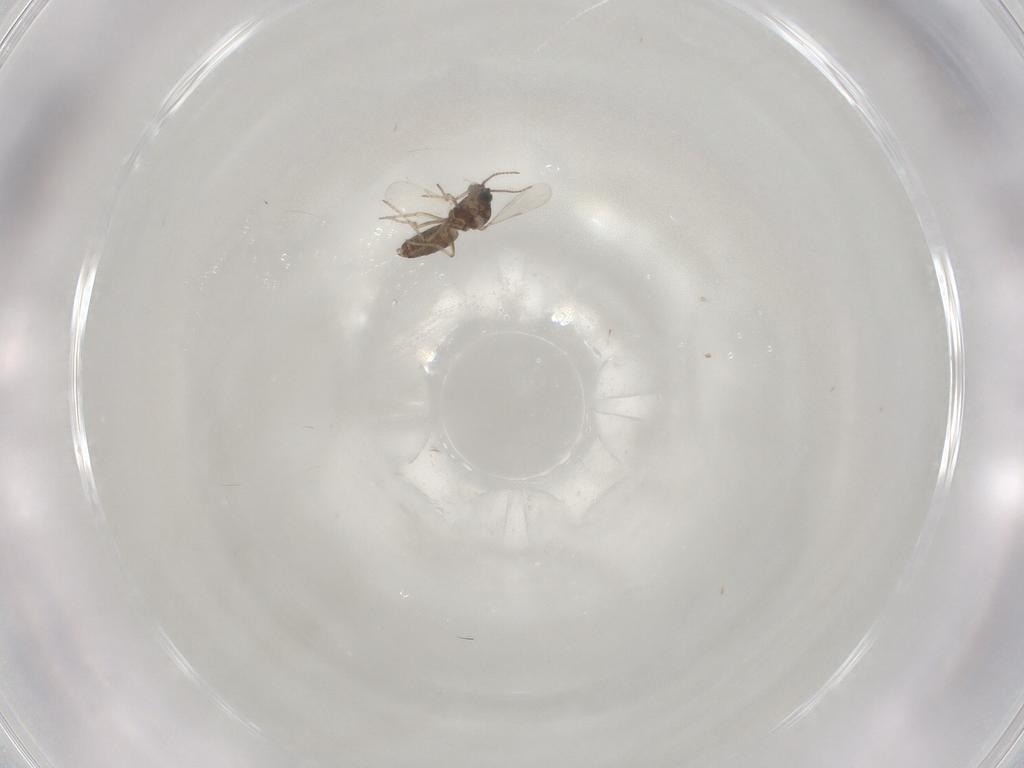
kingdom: Animalia
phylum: Arthropoda
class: Insecta
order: Diptera
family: Ceratopogonidae
